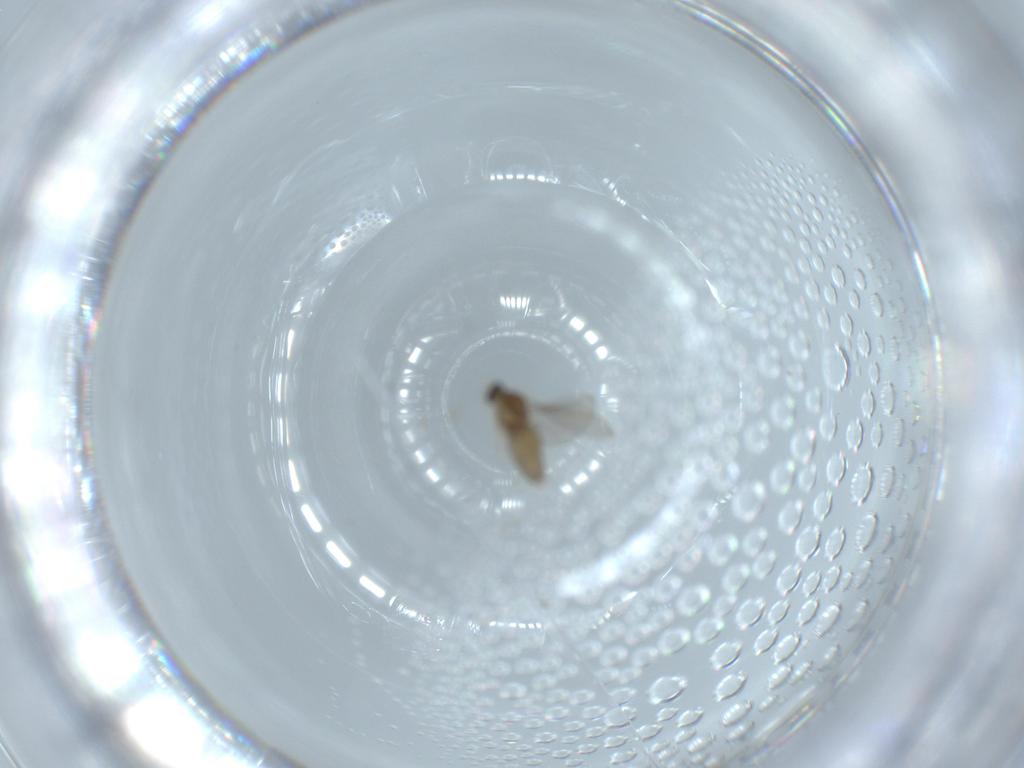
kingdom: Animalia
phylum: Arthropoda
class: Insecta
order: Diptera
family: Cecidomyiidae
